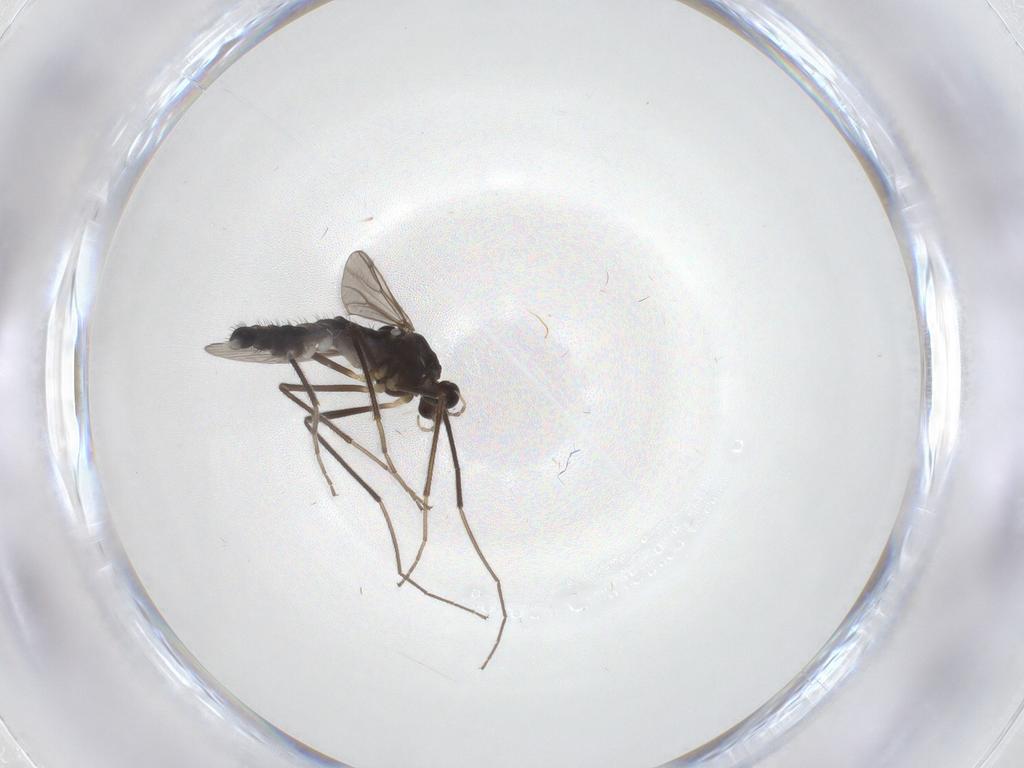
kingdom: Animalia
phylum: Arthropoda
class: Insecta
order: Diptera
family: Chironomidae
